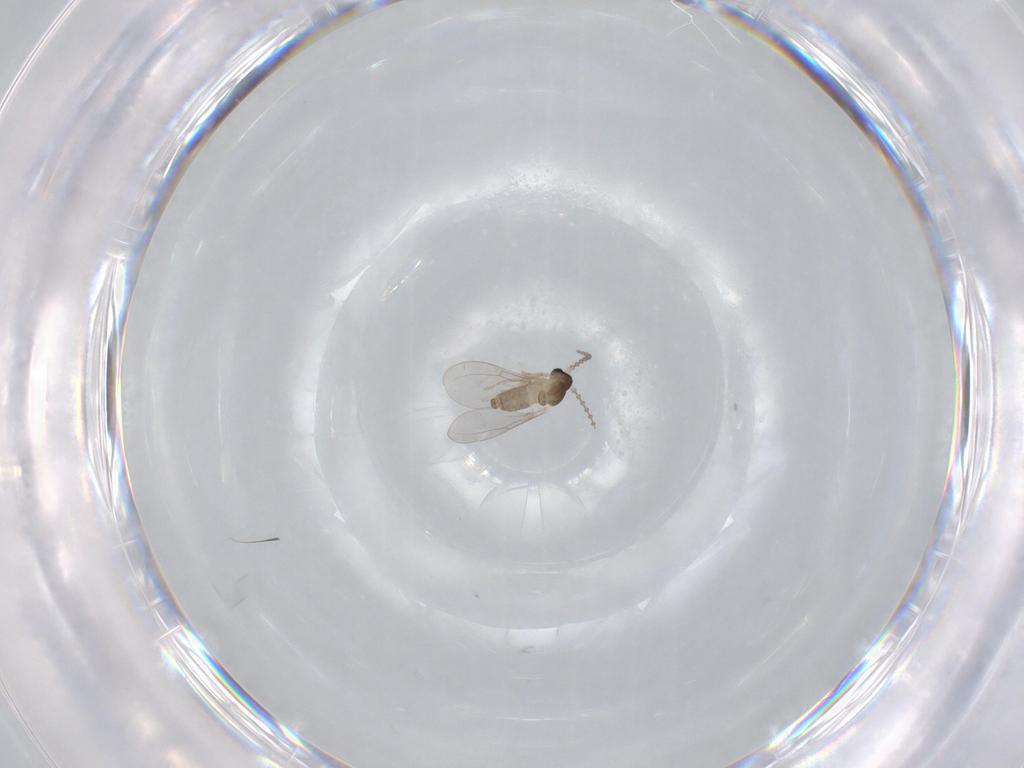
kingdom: Animalia
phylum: Arthropoda
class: Insecta
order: Diptera
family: Cecidomyiidae
